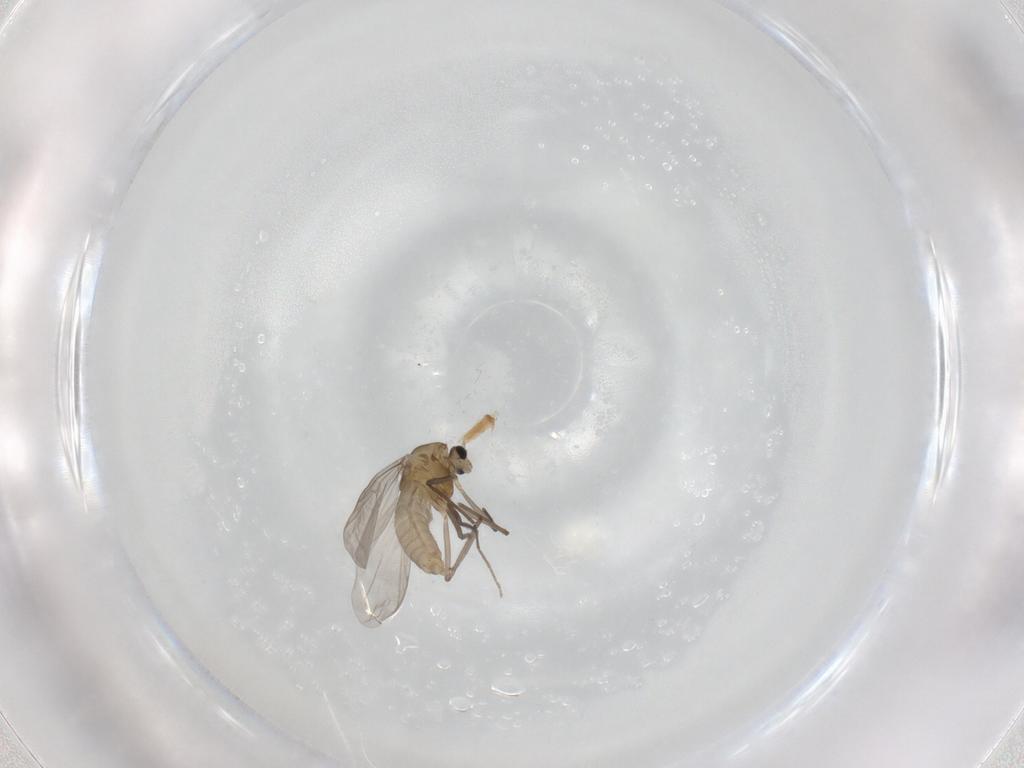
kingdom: Animalia
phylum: Arthropoda
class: Insecta
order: Diptera
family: Chironomidae
